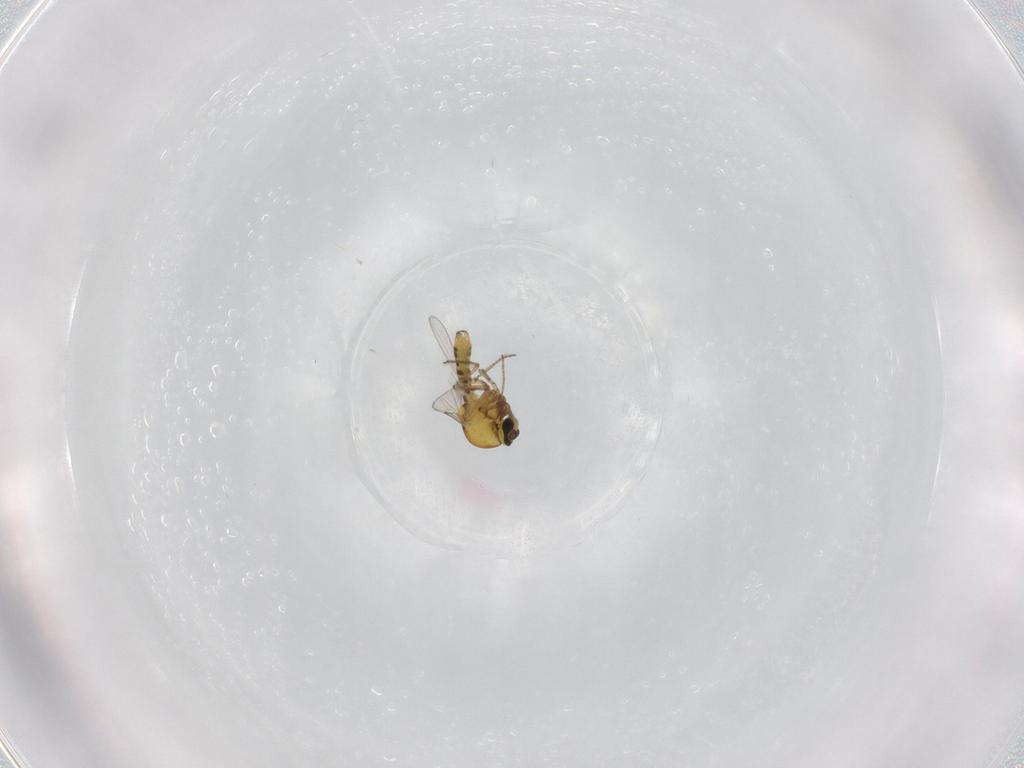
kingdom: Animalia
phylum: Arthropoda
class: Insecta
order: Diptera
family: Ceratopogonidae
